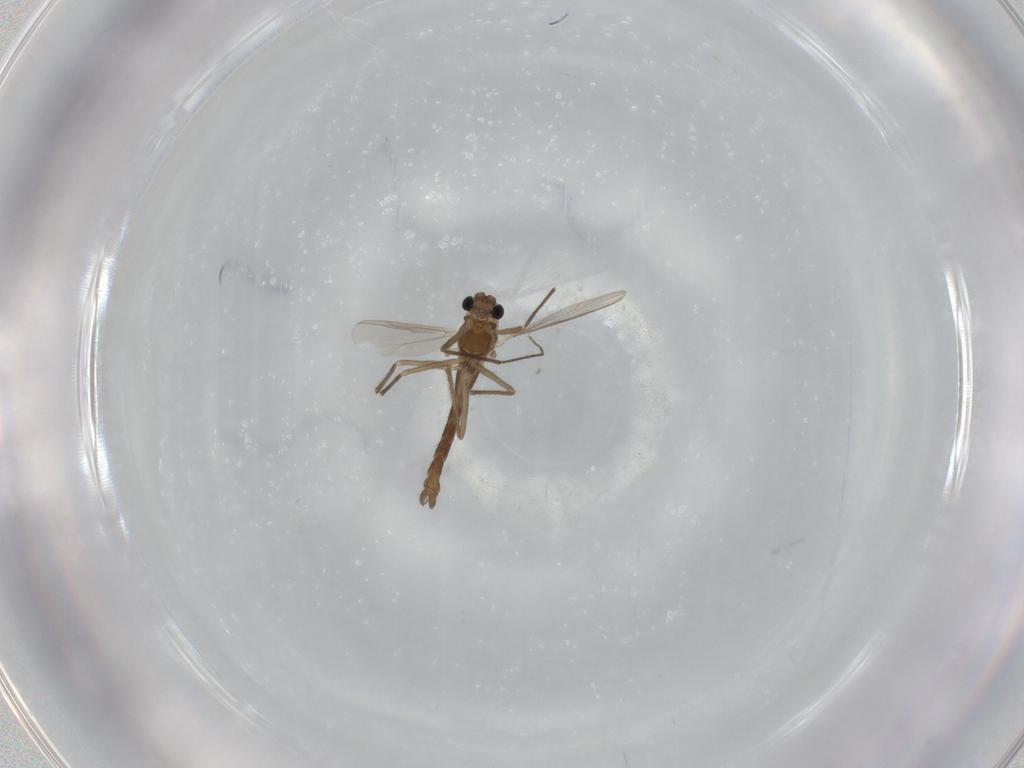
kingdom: Animalia
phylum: Arthropoda
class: Insecta
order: Diptera
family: Chironomidae
